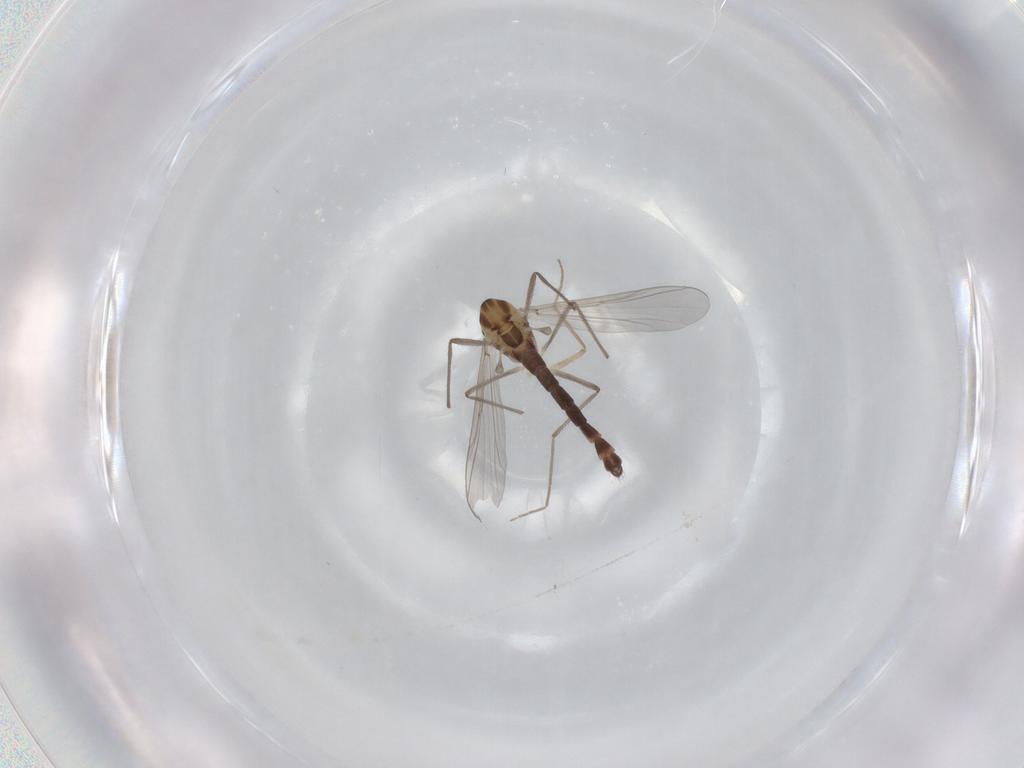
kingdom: Animalia
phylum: Arthropoda
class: Insecta
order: Diptera
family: Chironomidae
